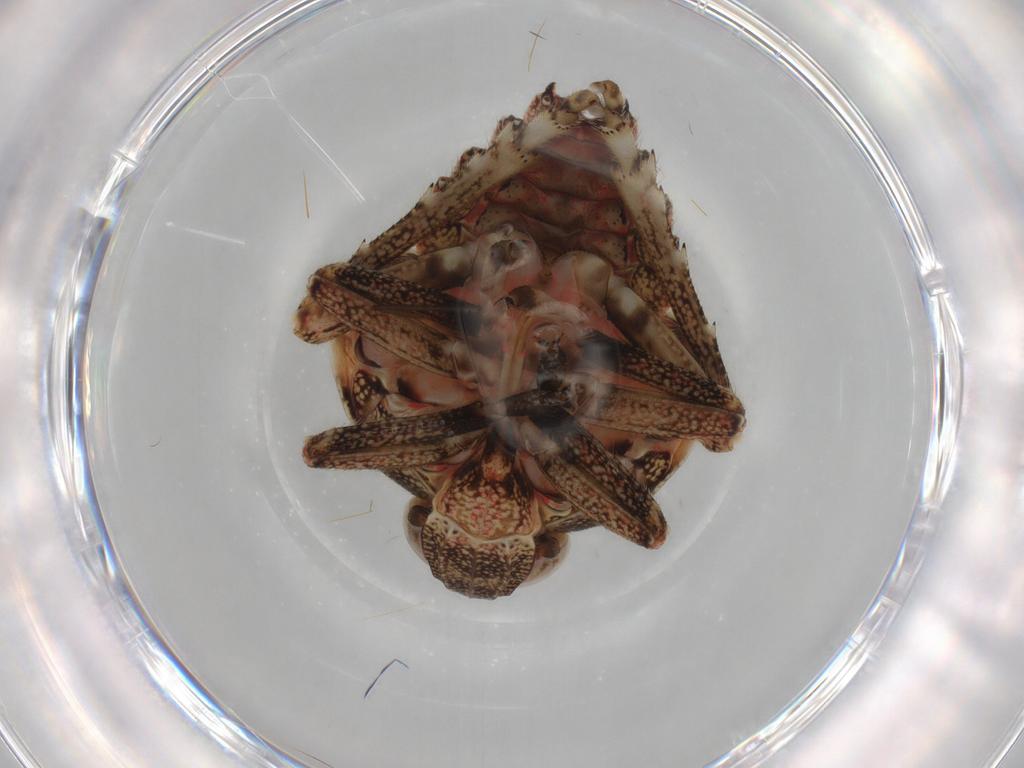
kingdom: Animalia
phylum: Arthropoda
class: Insecta
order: Hemiptera
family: Tropiduchidae
